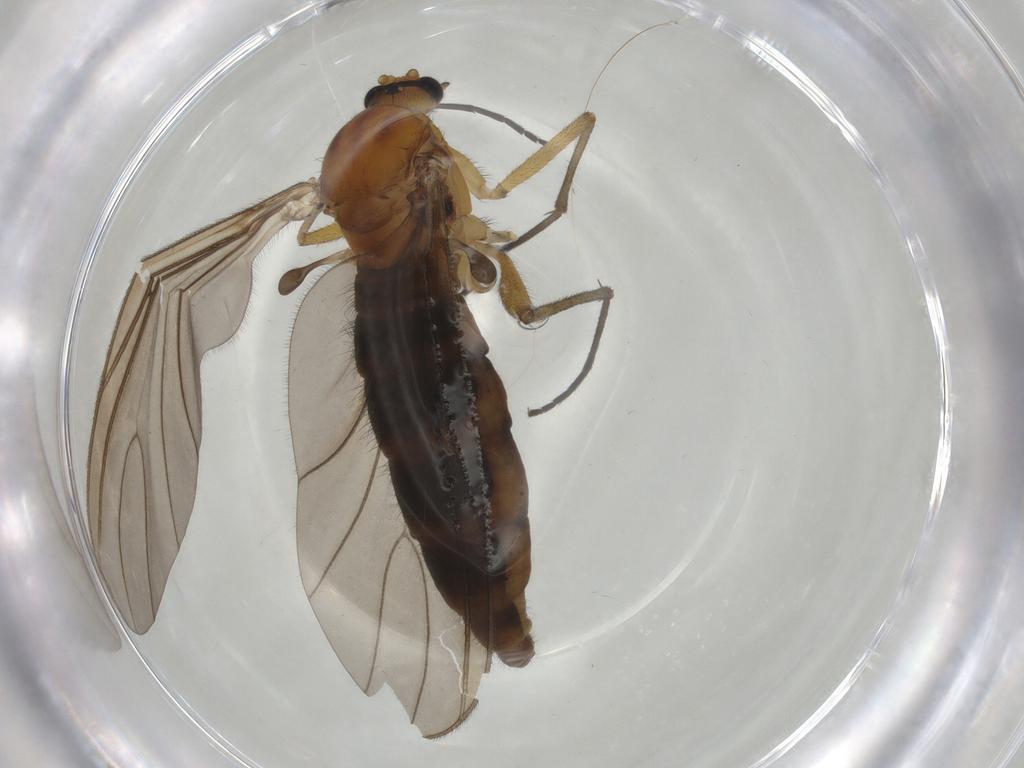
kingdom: Animalia
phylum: Arthropoda
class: Insecta
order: Diptera
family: Sciaridae
